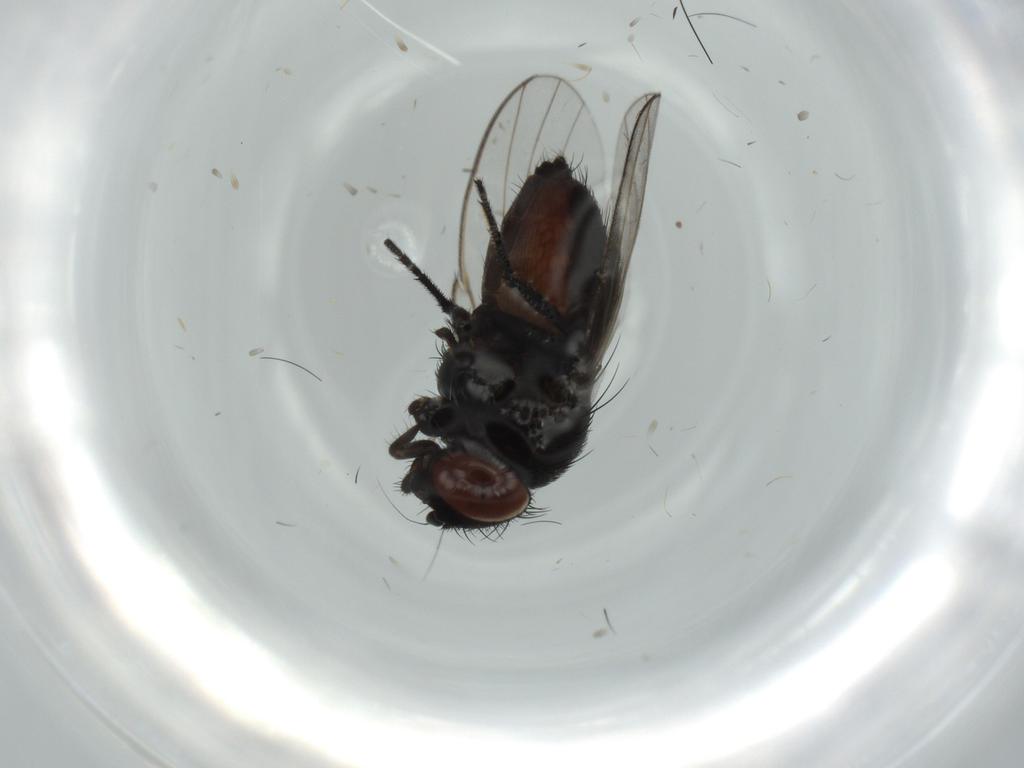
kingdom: Animalia
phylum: Arthropoda
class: Insecta
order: Diptera
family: Milichiidae
